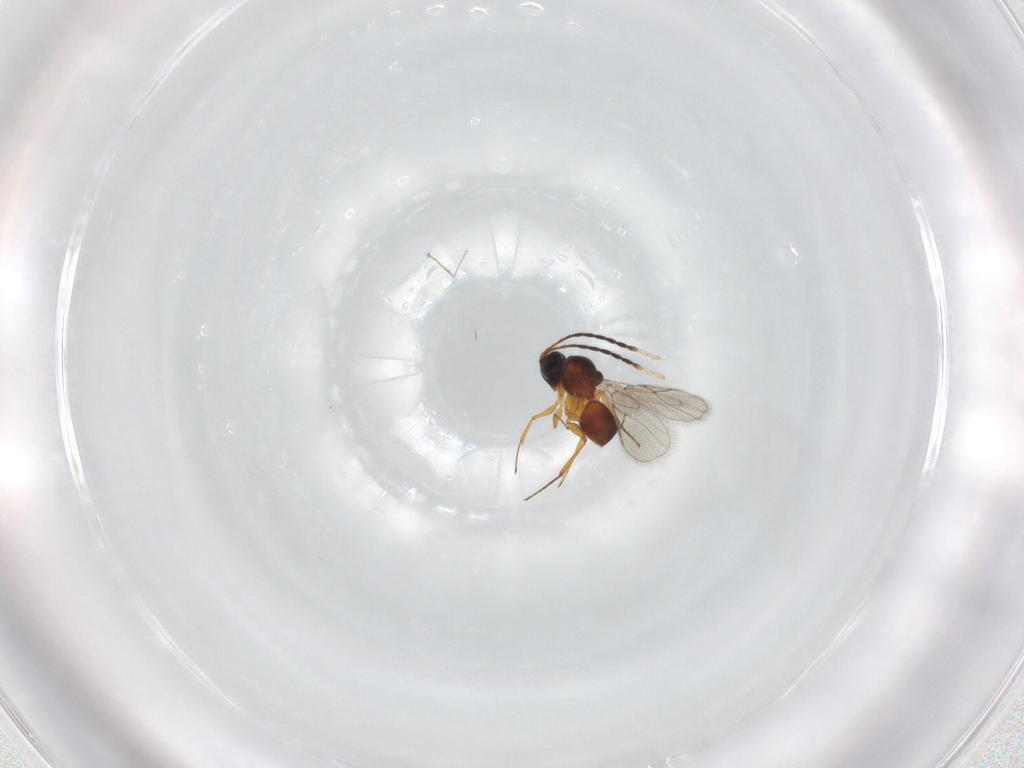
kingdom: Animalia
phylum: Arthropoda
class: Insecta
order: Hymenoptera
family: Figitidae
